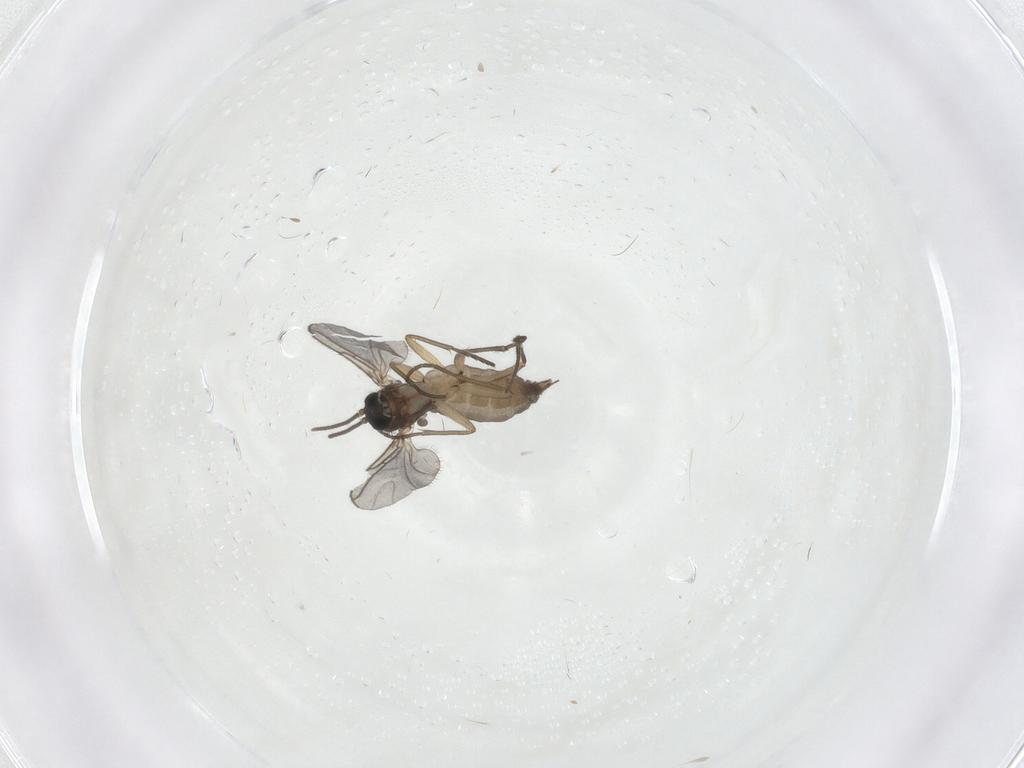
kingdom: Animalia
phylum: Arthropoda
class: Insecta
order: Diptera
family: Sciaridae
